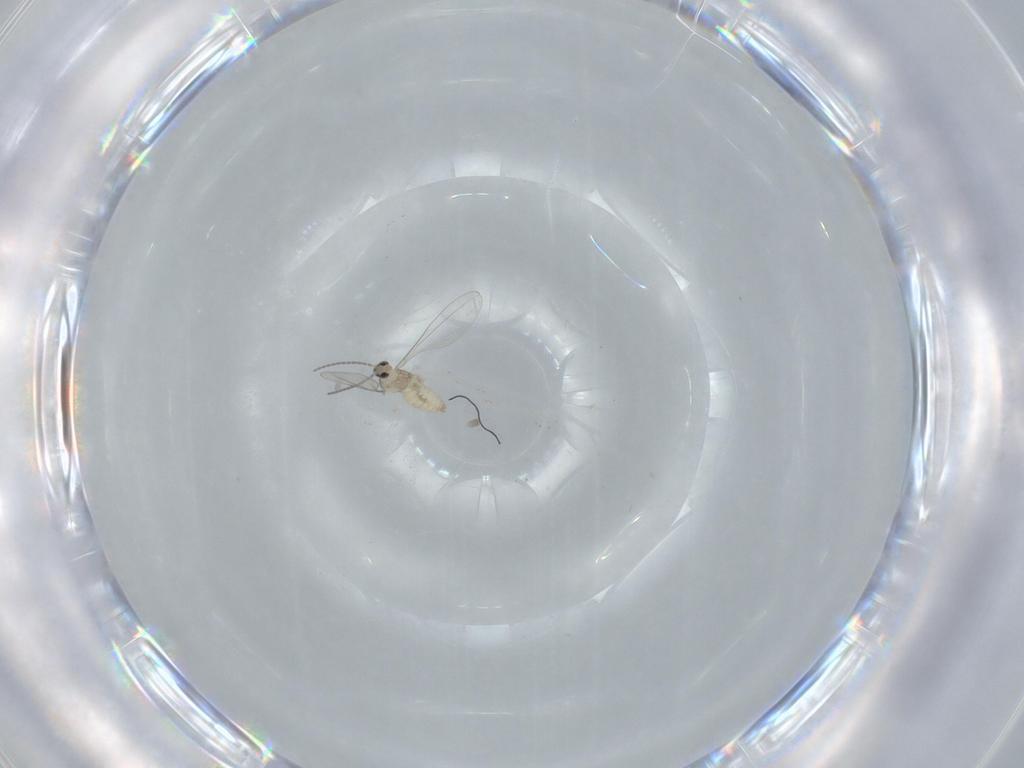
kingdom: Animalia
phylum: Arthropoda
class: Insecta
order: Diptera
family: Cecidomyiidae
